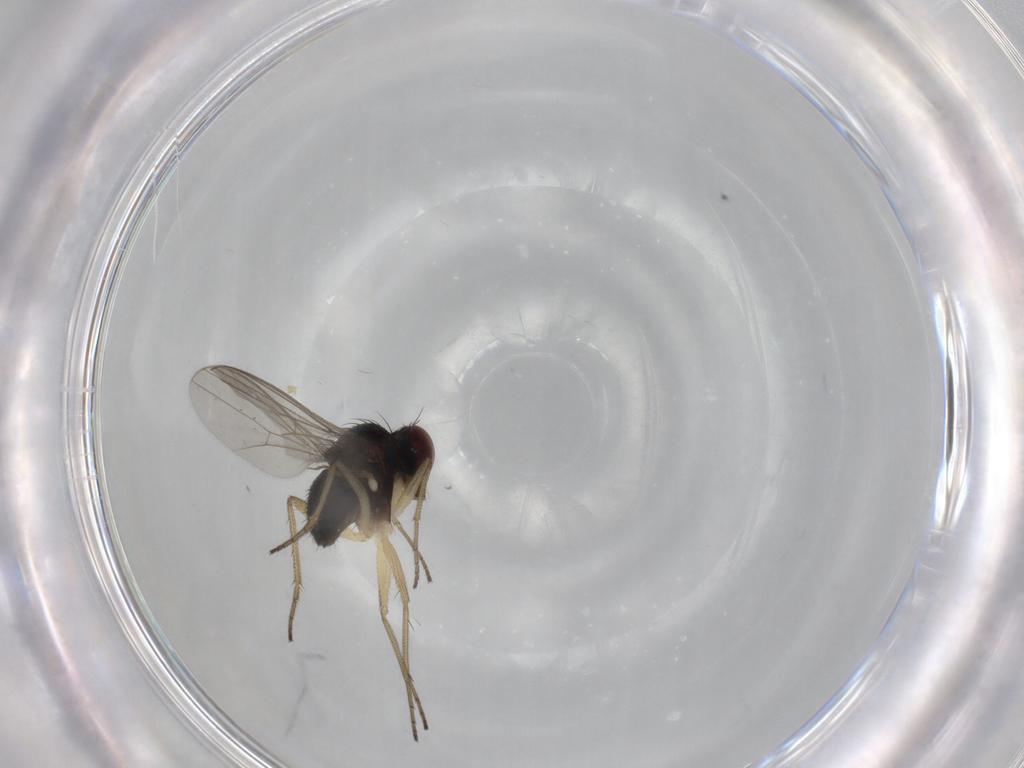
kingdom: Animalia
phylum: Arthropoda
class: Insecta
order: Diptera
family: Dolichopodidae
